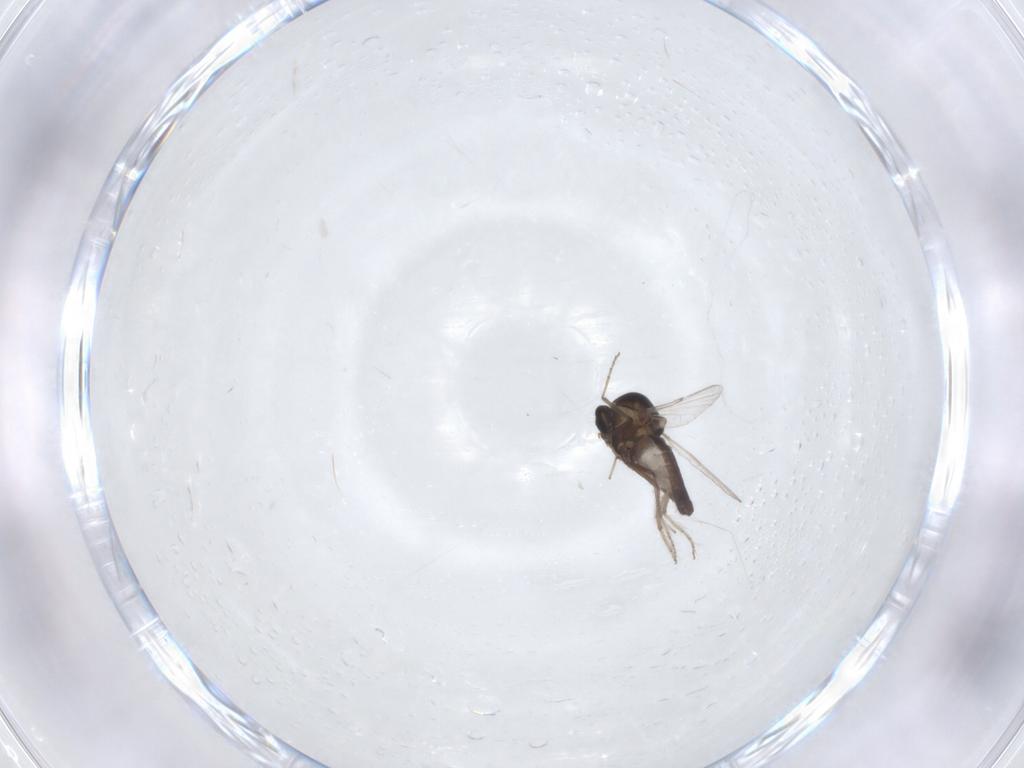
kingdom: Animalia
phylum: Arthropoda
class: Insecta
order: Diptera
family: Ceratopogonidae
